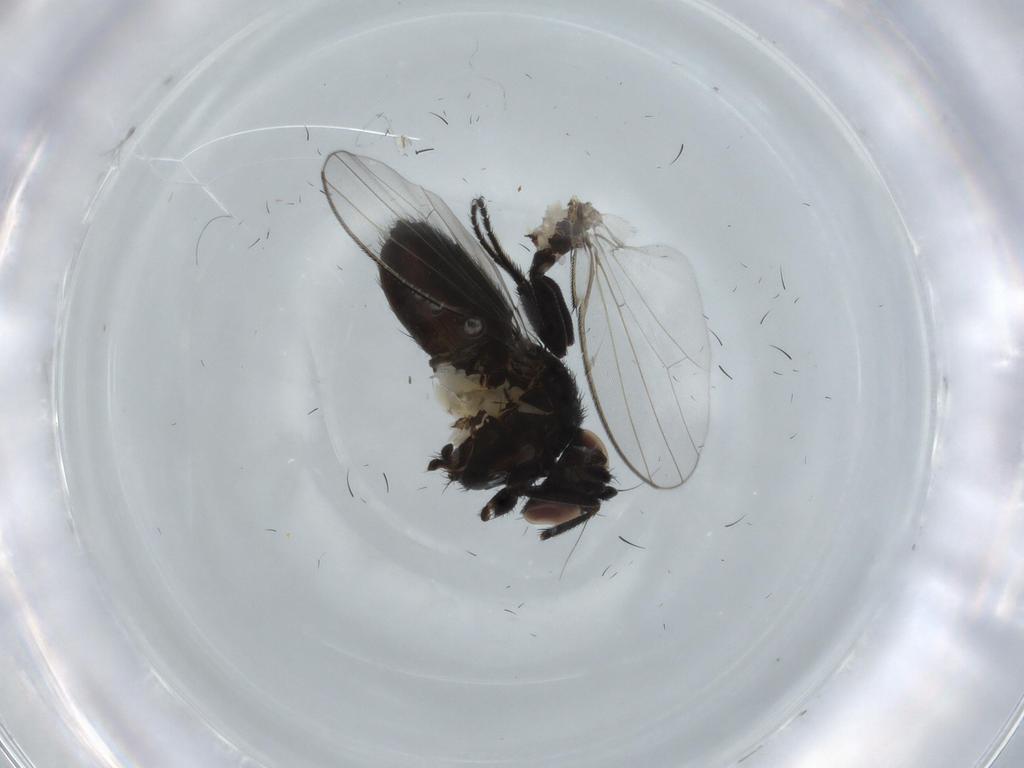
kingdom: Animalia
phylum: Arthropoda
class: Insecta
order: Diptera
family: Milichiidae
